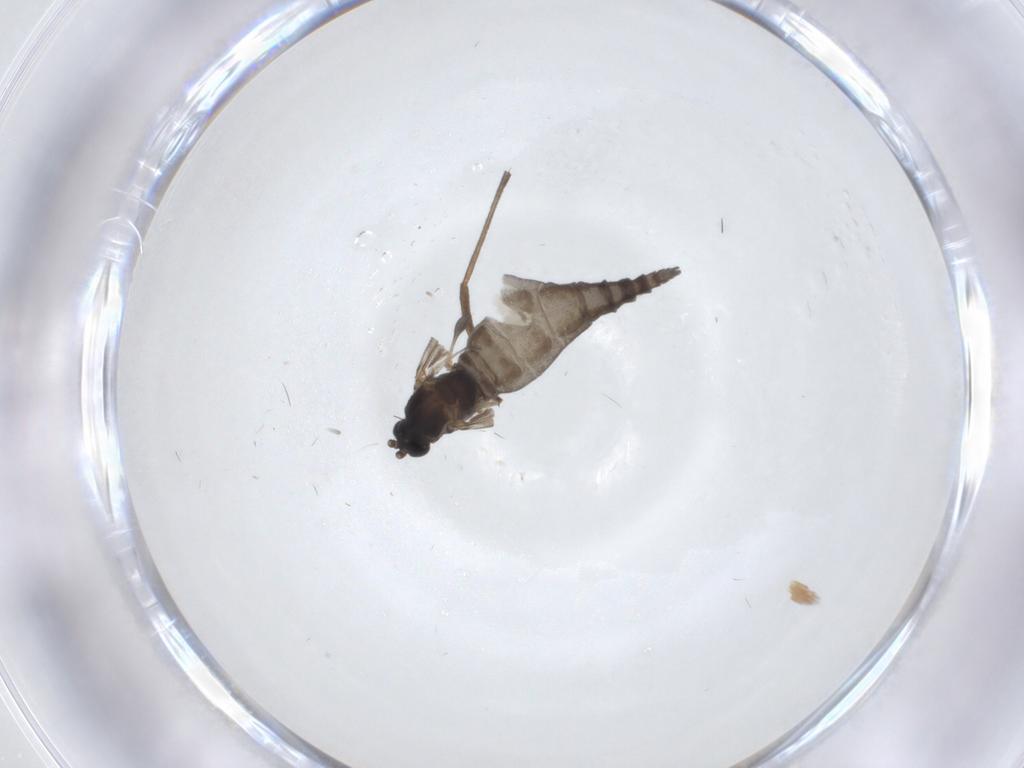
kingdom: Animalia
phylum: Arthropoda
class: Insecta
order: Diptera
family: Sciaridae
